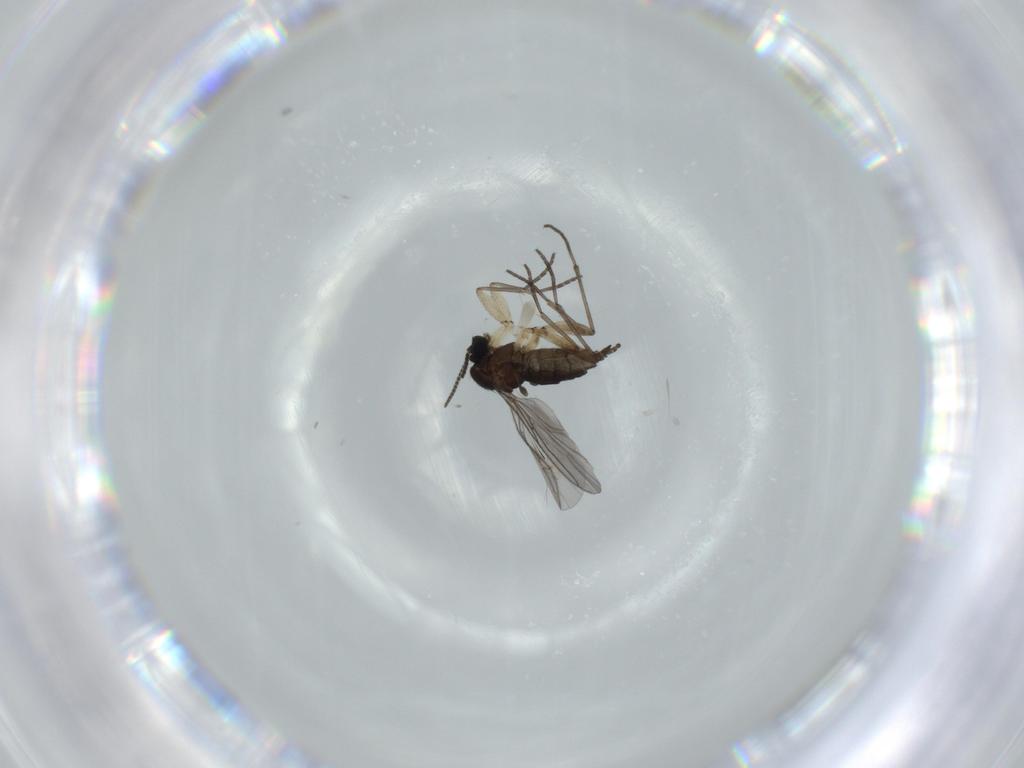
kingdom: Animalia
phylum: Arthropoda
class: Insecta
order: Diptera
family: Sciaridae
